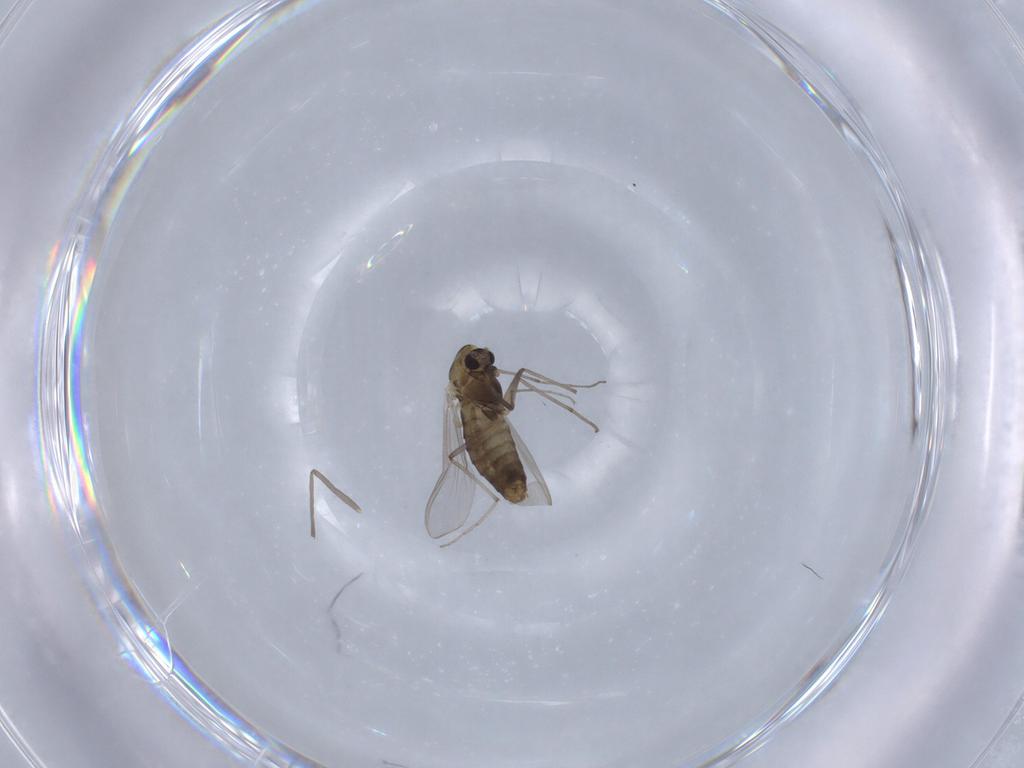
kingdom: Animalia
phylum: Arthropoda
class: Insecta
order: Diptera
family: Chironomidae
